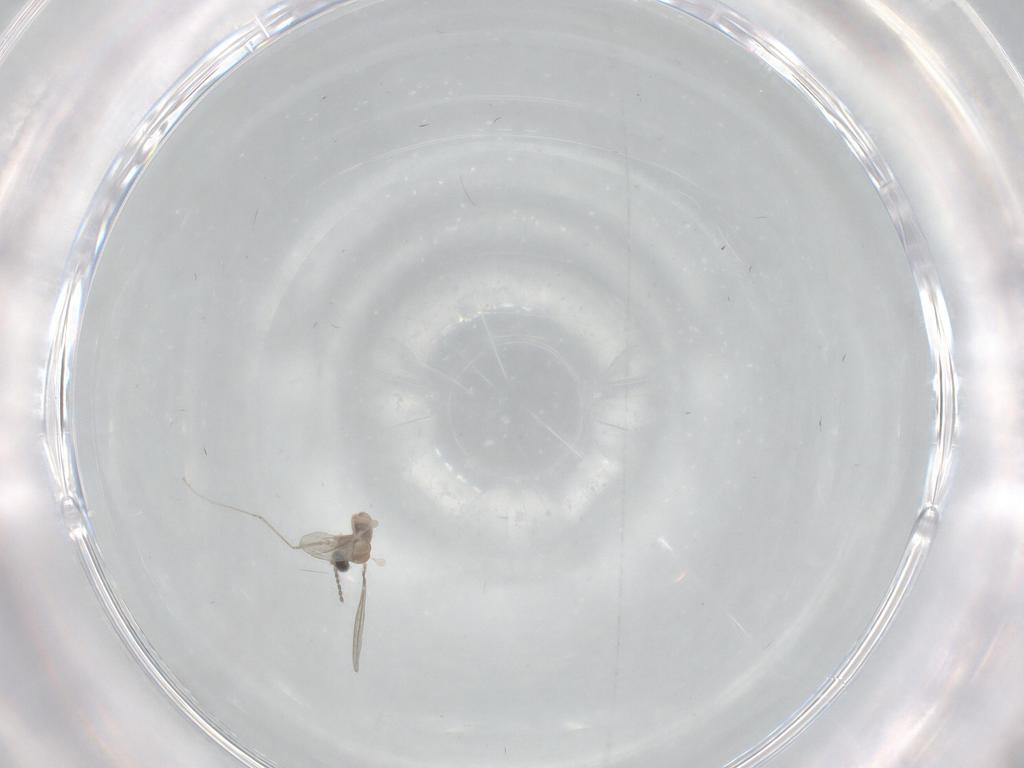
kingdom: Animalia
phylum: Arthropoda
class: Insecta
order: Diptera
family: Cecidomyiidae
